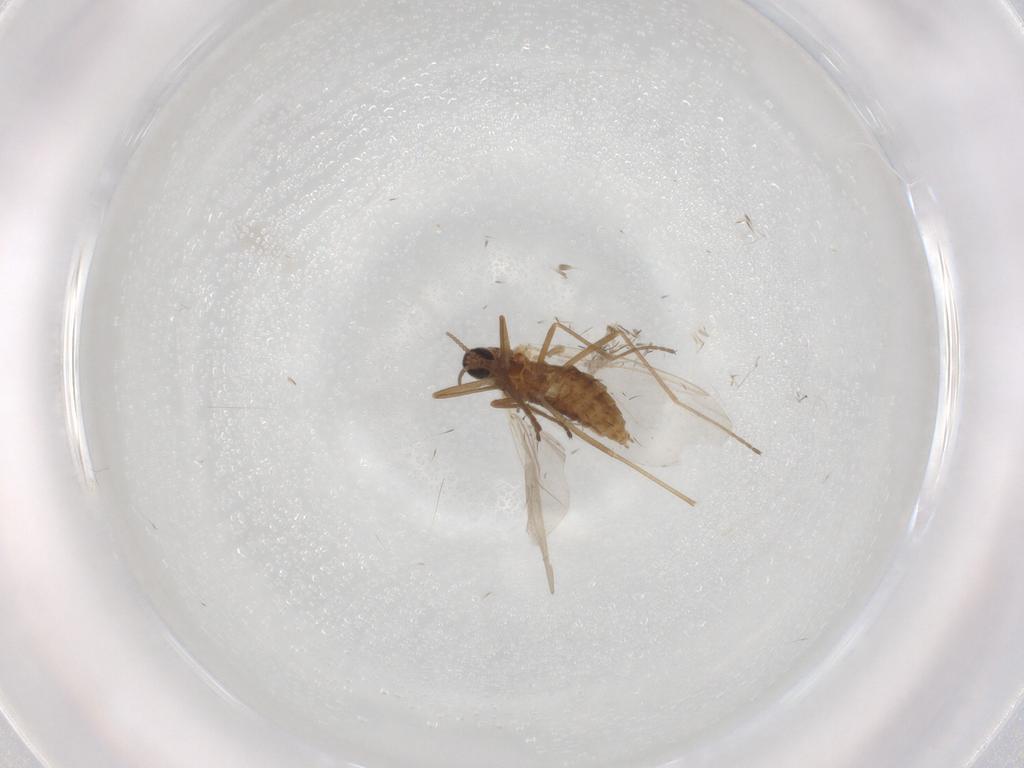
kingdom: Animalia
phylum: Arthropoda
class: Insecta
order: Diptera
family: Cecidomyiidae
